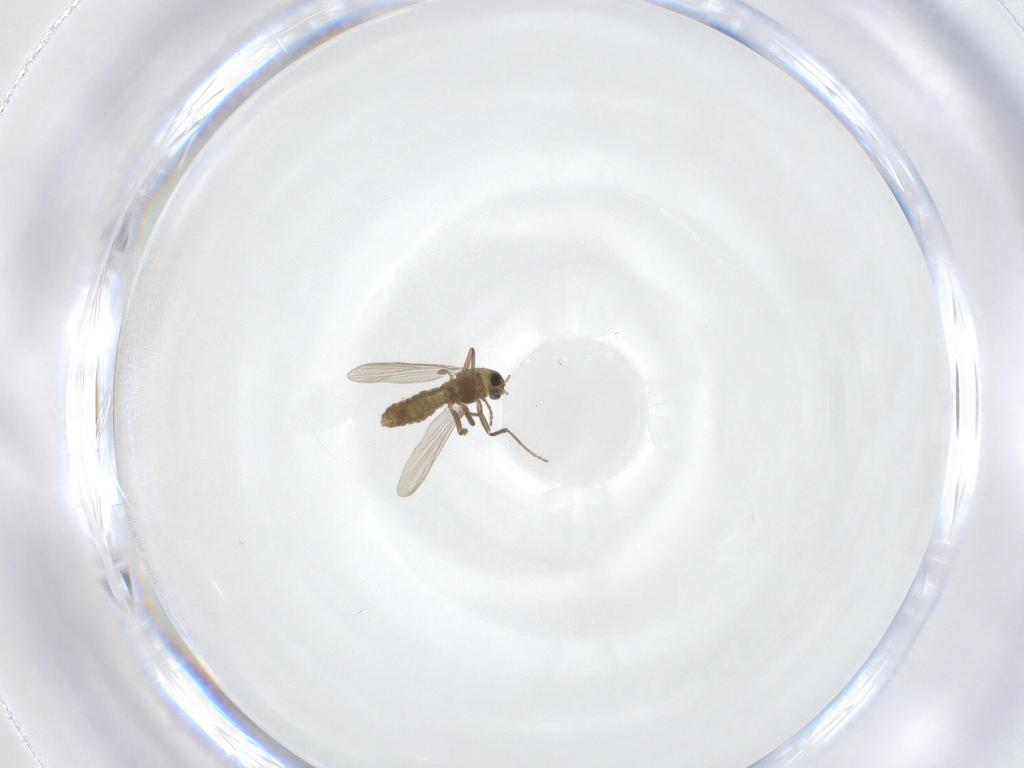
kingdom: Animalia
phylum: Arthropoda
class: Insecta
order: Diptera
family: Chironomidae
